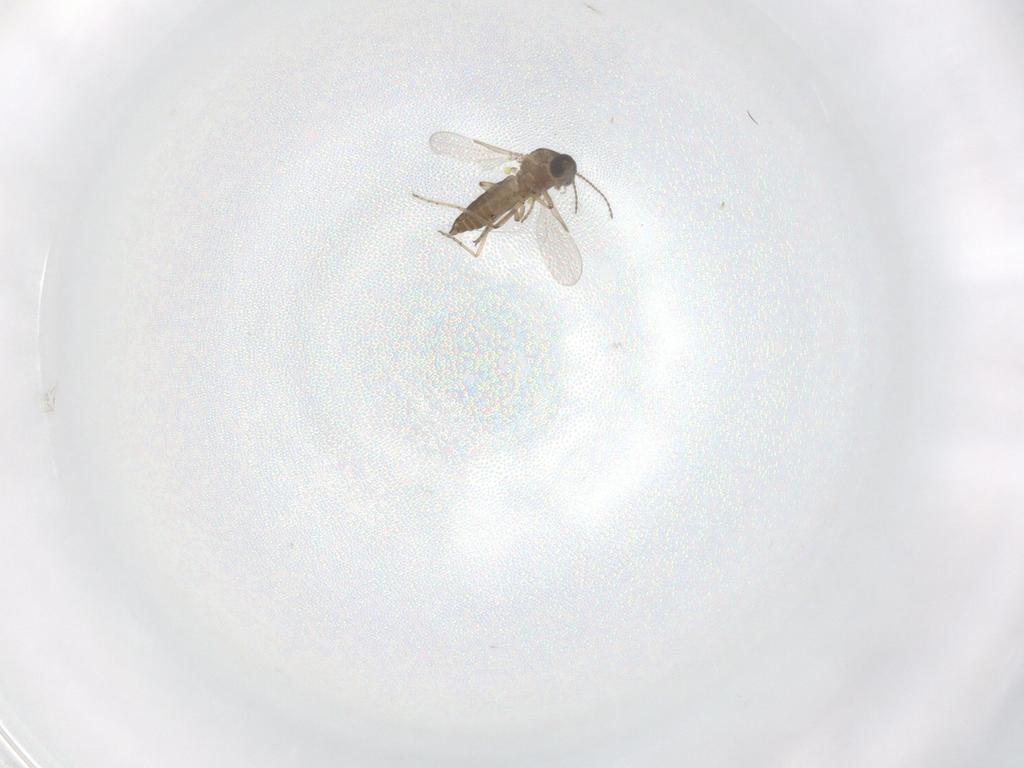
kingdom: Animalia
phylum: Arthropoda
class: Insecta
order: Diptera
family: Ceratopogonidae
